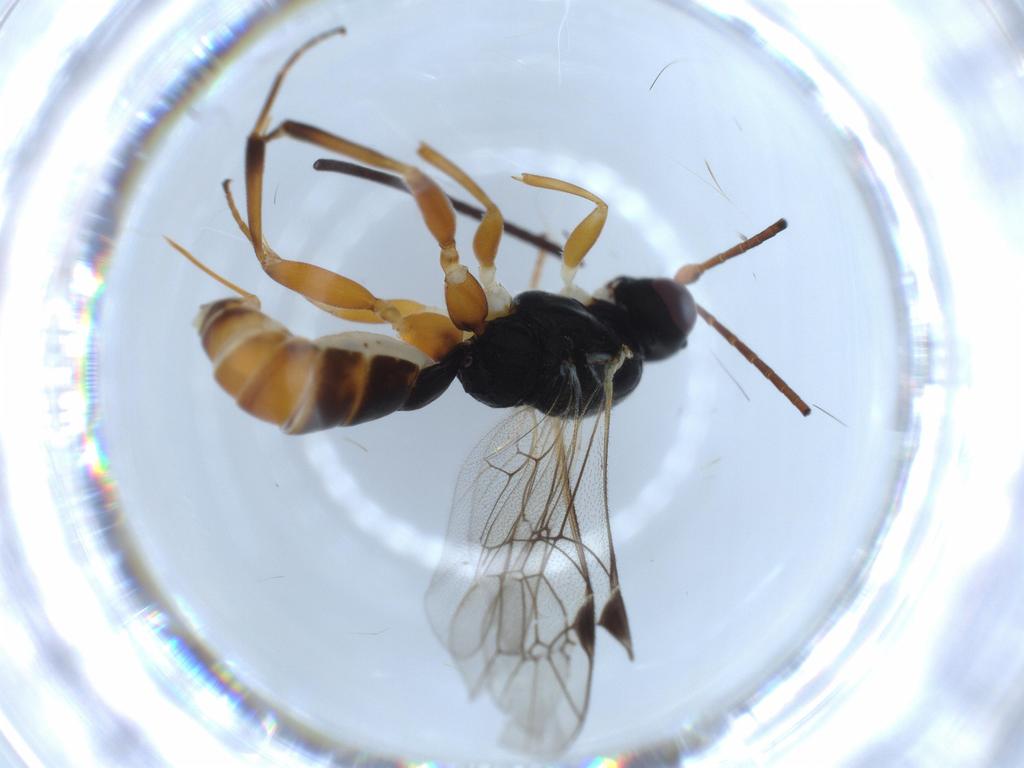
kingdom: Animalia
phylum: Arthropoda
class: Insecta
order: Hymenoptera
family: Ichneumonidae
